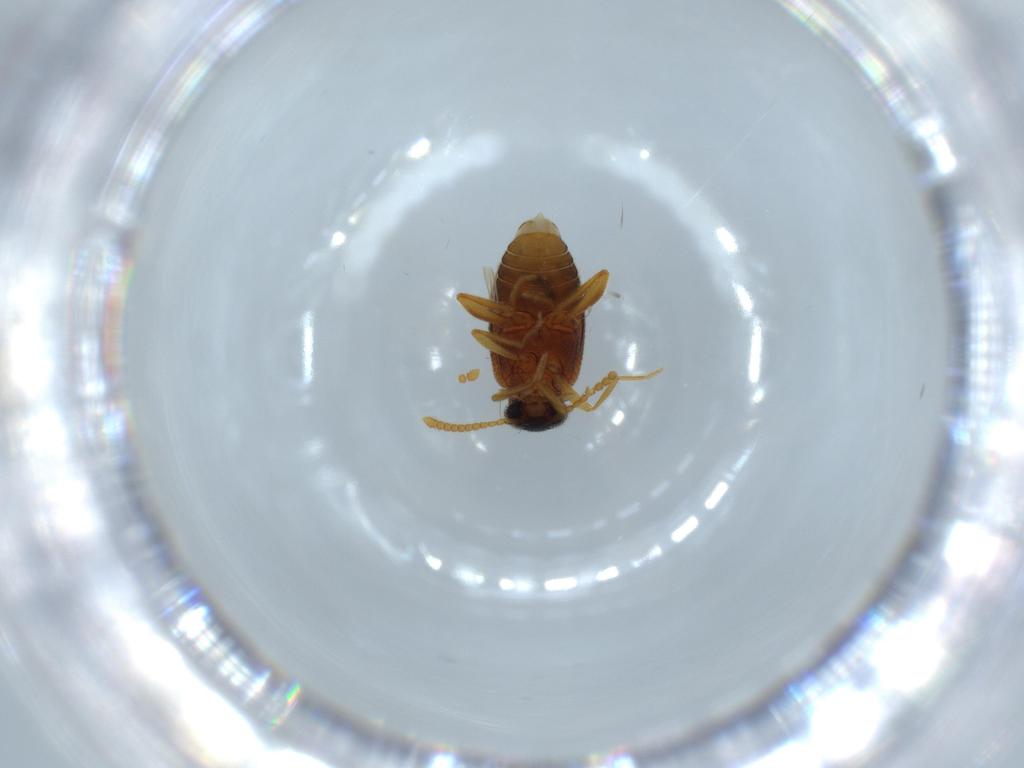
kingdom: Animalia
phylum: Arthropoda
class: Insecta
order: Coleoptera
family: Aderidae
